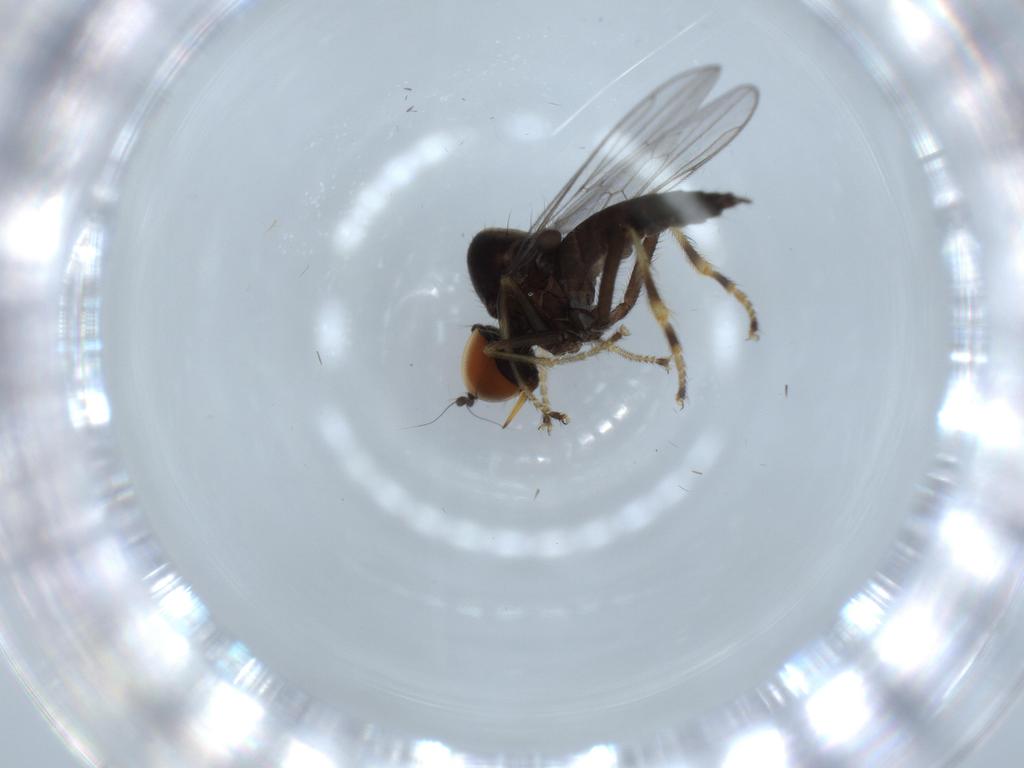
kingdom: Animalia
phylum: Arthropoda
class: Insecta
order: Diptera
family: Hybotidae
